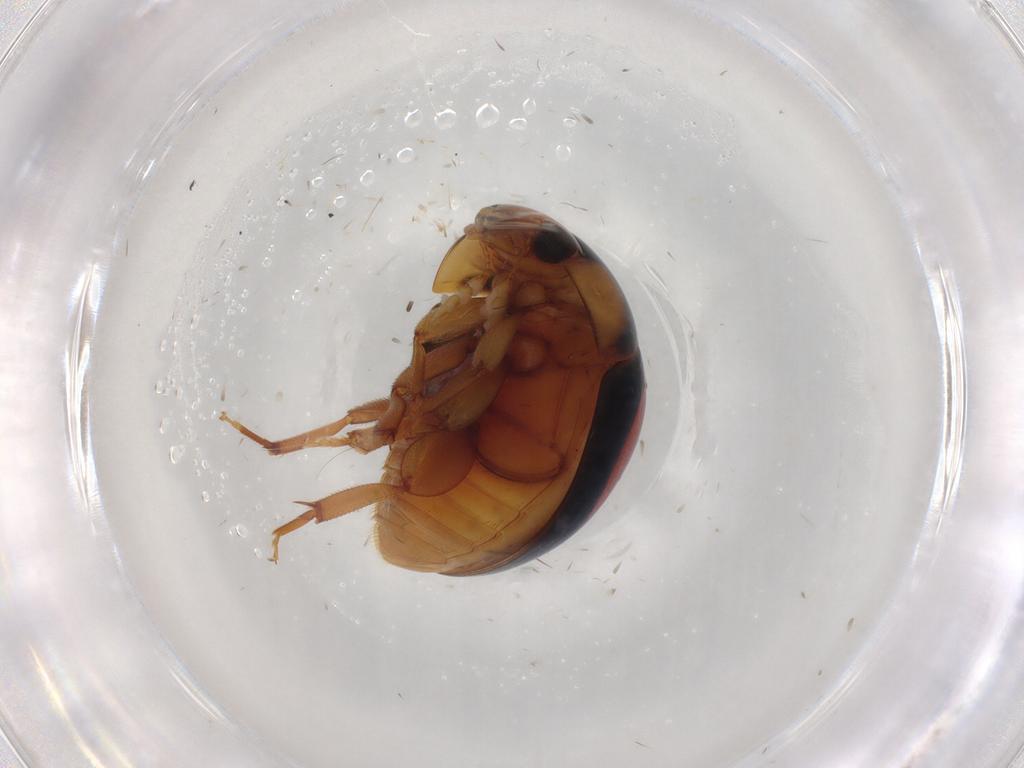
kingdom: Animalia
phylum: Arthropoda
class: Insecta
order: Coleoptera
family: Phalacridae
